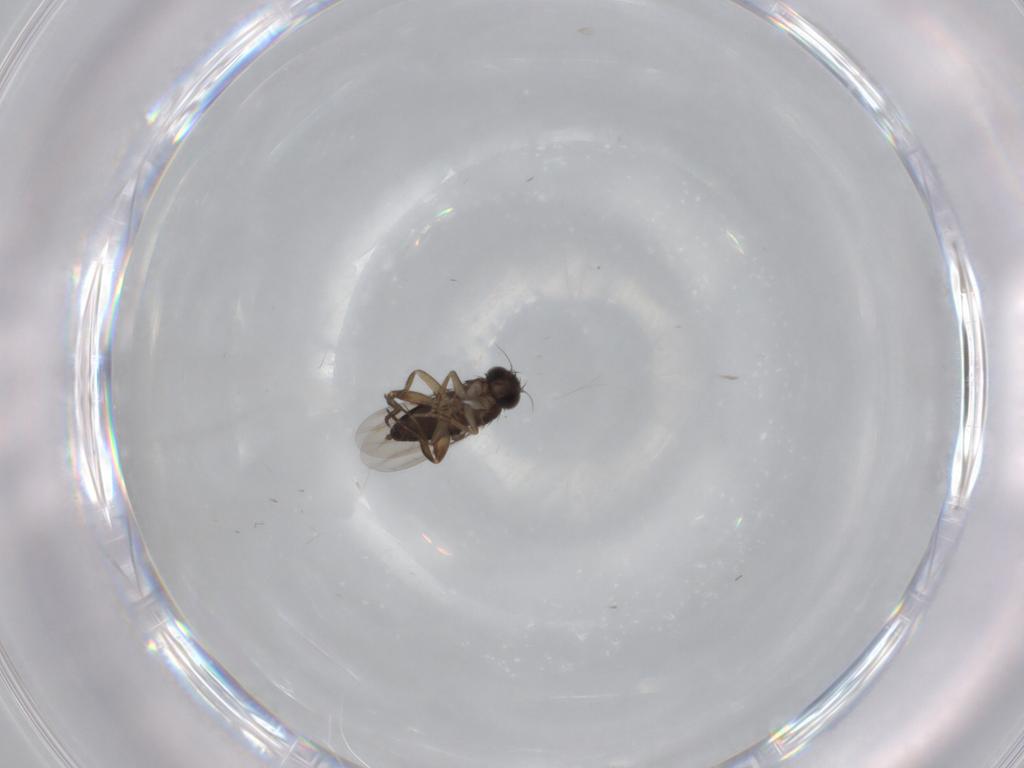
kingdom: Animalia
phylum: Arthropoda
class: Insecta
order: Diptera
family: Phoridae
